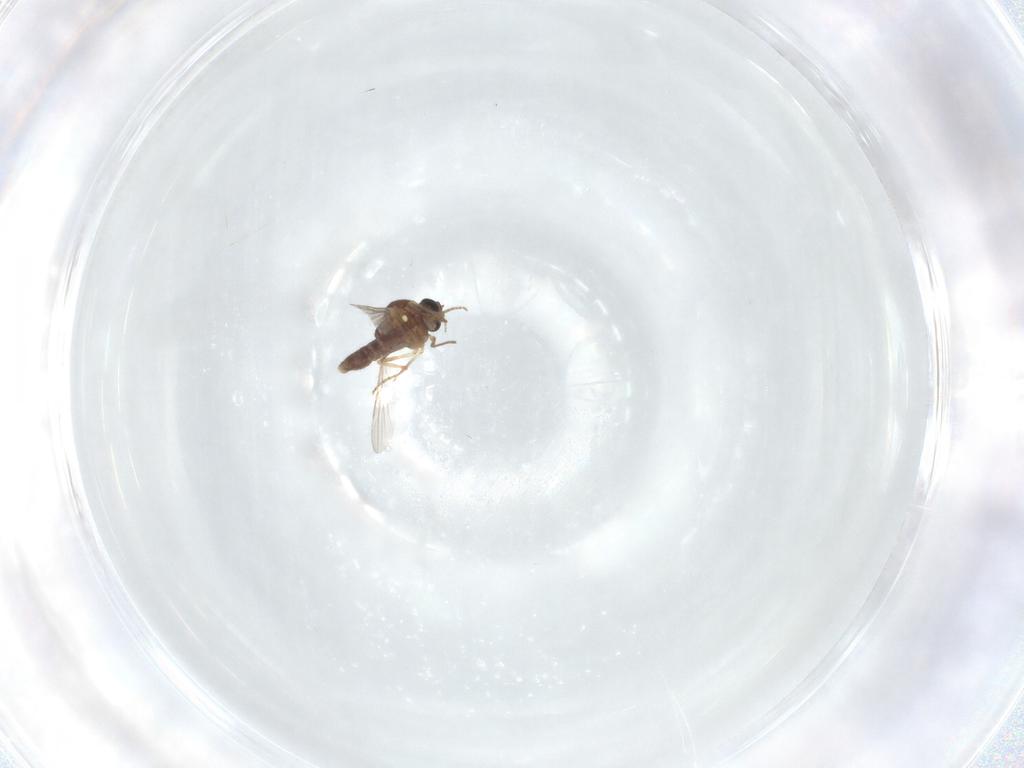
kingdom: Animalia
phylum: Arthropoda
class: Insecta
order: Diptera
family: Ceratopogonidae
